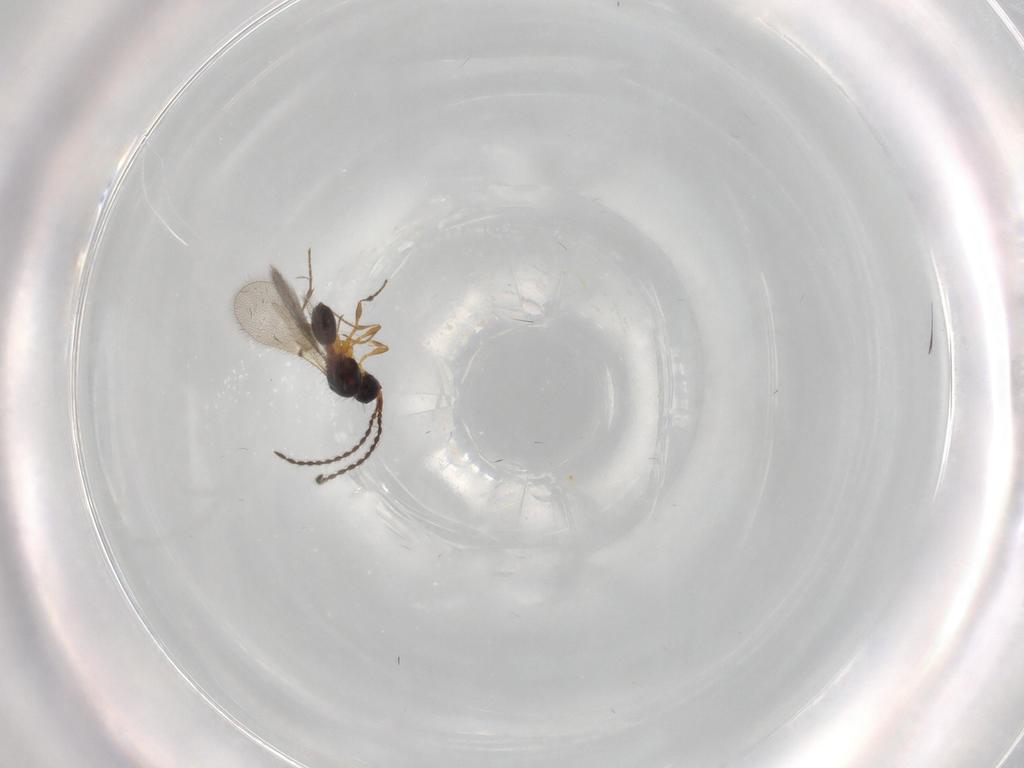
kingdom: Animalia
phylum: Arthropoda
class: Insecta
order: Hymenoptera
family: Diapriidae
